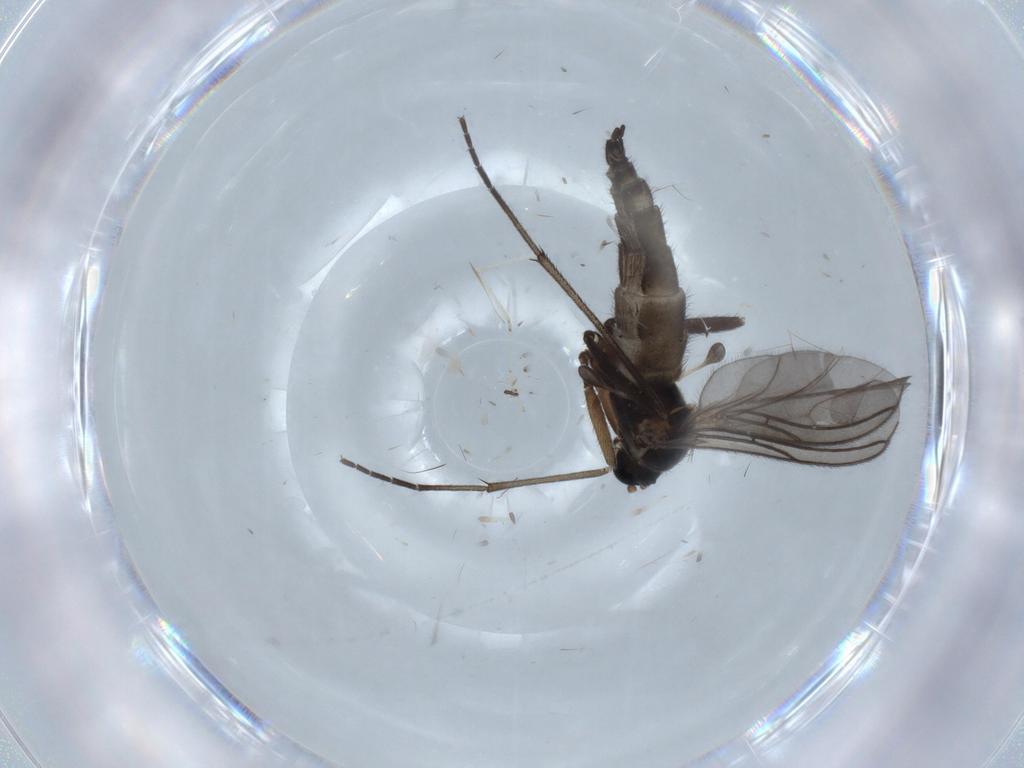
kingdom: Animalia
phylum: Arthropoda
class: Insecta
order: Diptera
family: Sciaridae
